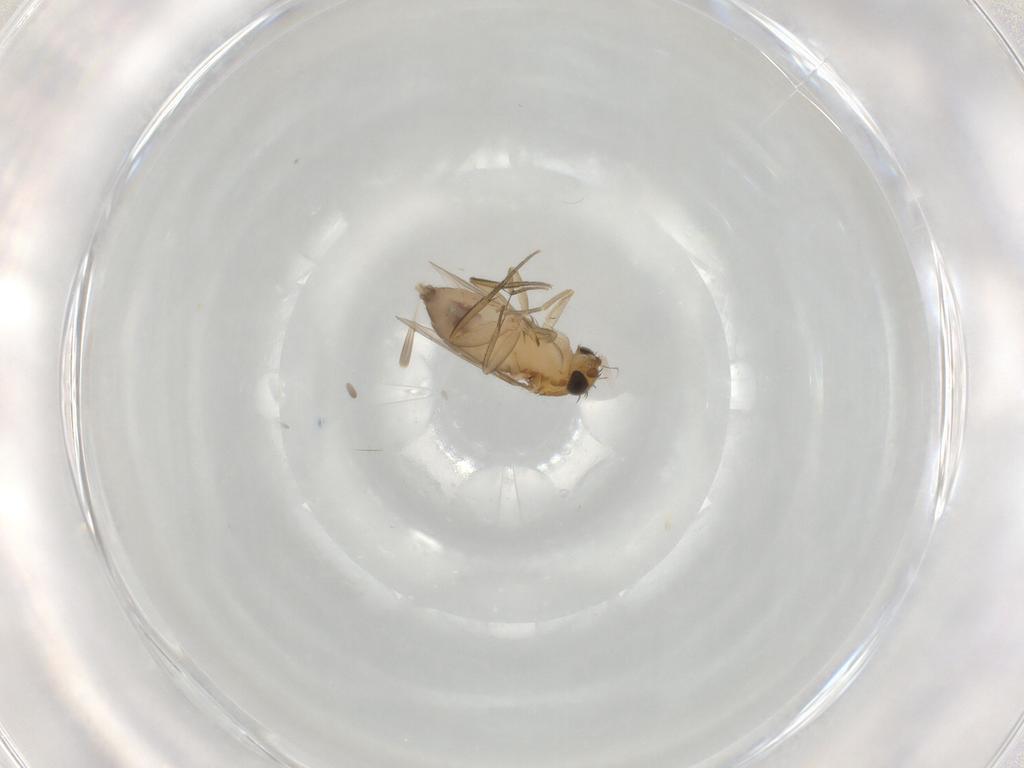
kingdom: Animalia
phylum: Arthropoda
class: Insecta
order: Diptera
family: Phoridae
